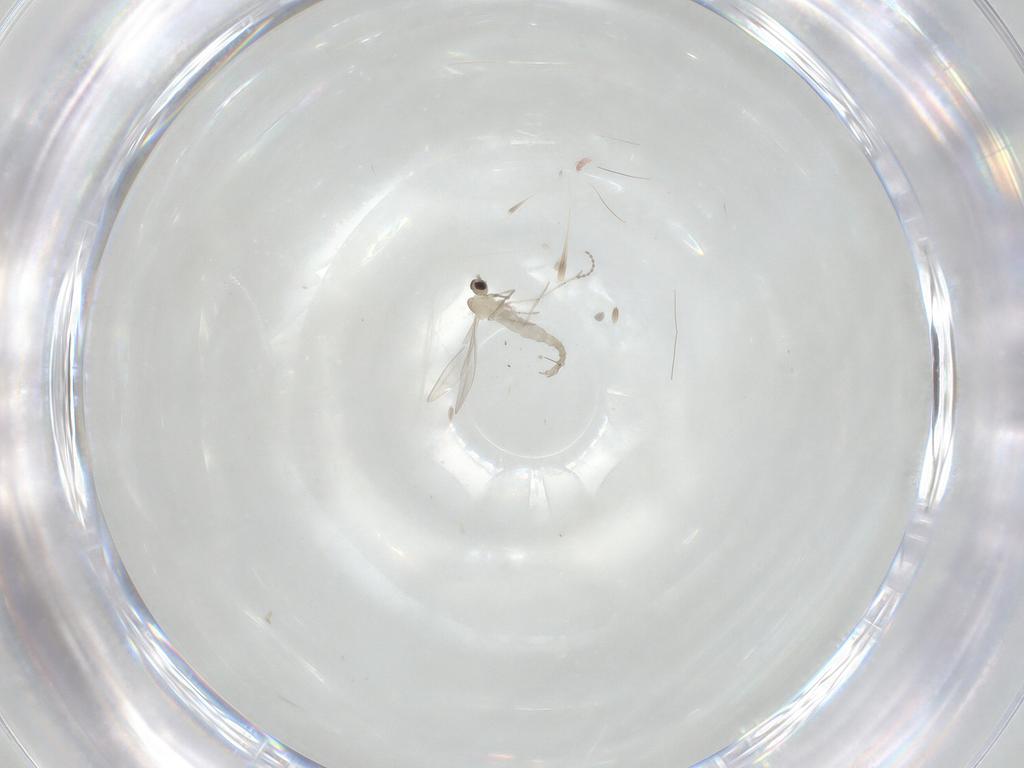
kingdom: Animalia
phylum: Arthropoda
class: Insecta
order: Diptera
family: Cecidomyiidae
